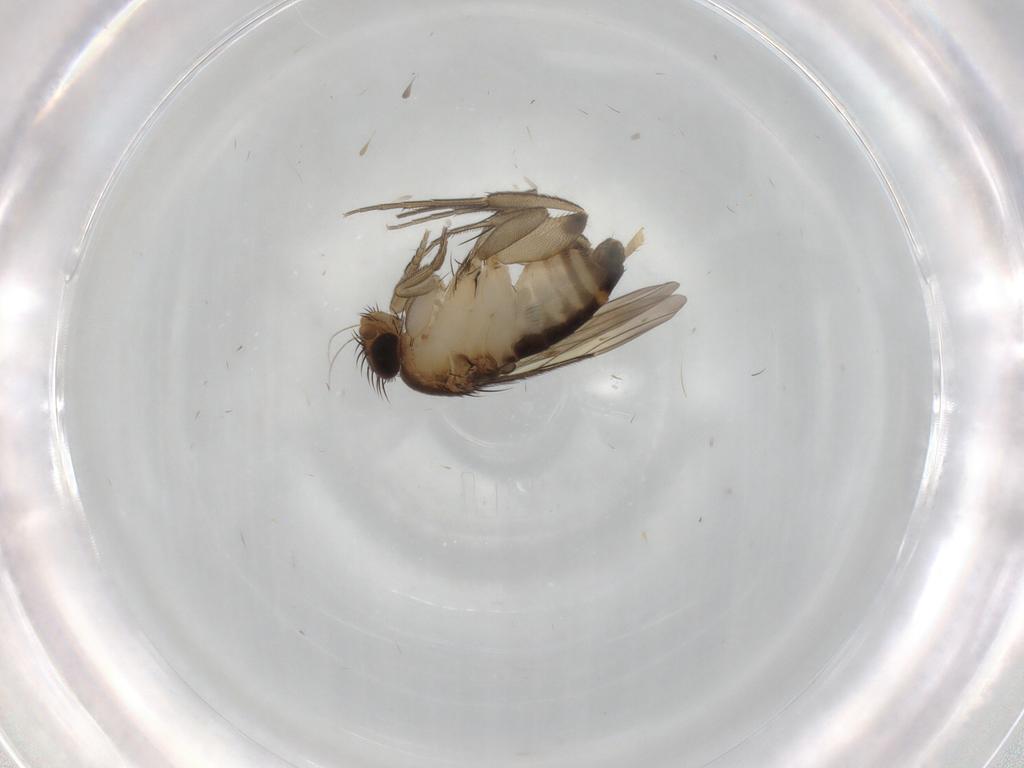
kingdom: Animalia
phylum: Arthropoda
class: Insecta
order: Diptera
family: Phoridae
